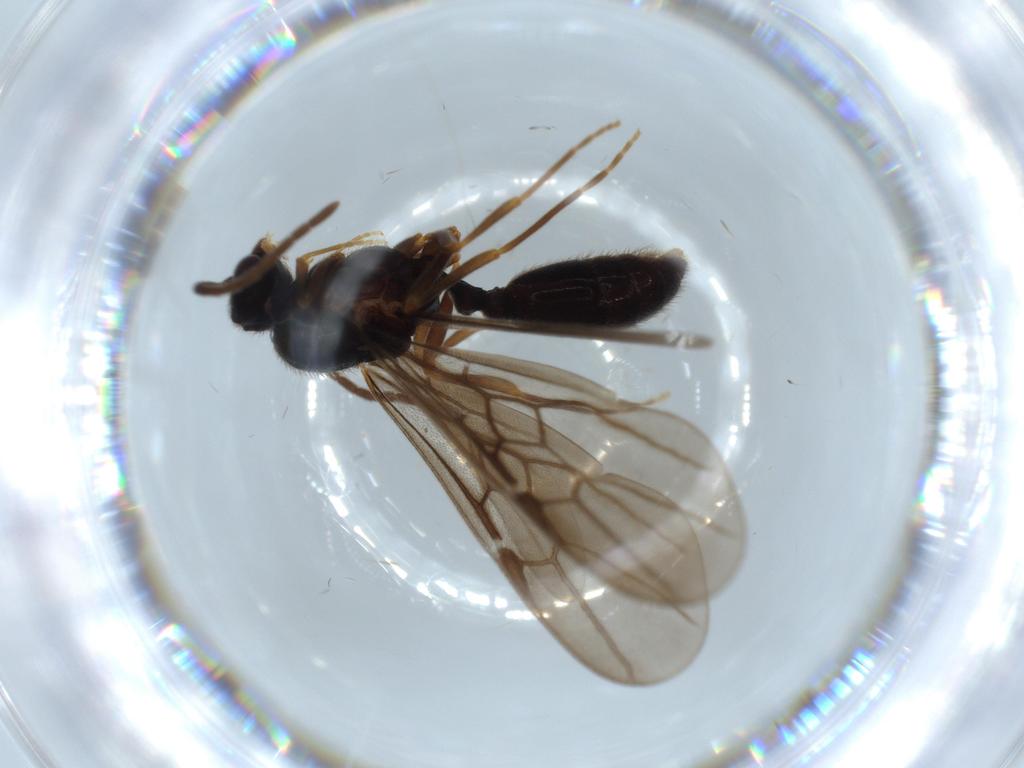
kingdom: Animalia
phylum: Arthropoda
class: Insecta
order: Hymenoptera
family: Formicidae
